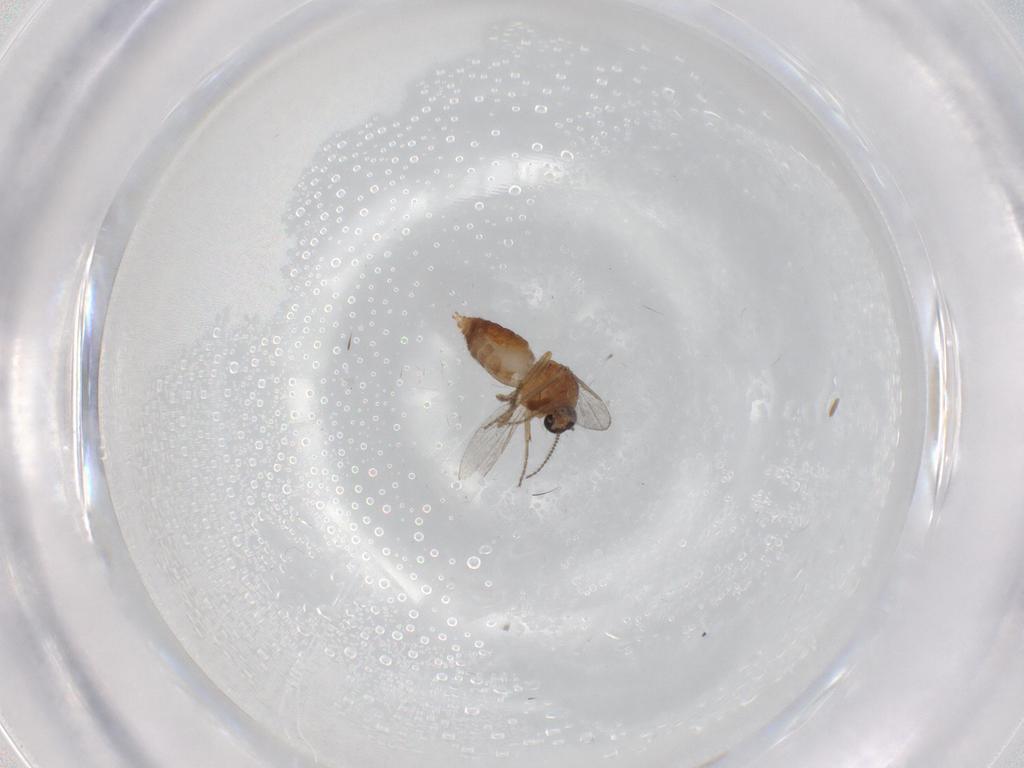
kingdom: Animalia
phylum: Arthropoda
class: Insecta
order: Diptera
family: Ceratopogonidae
